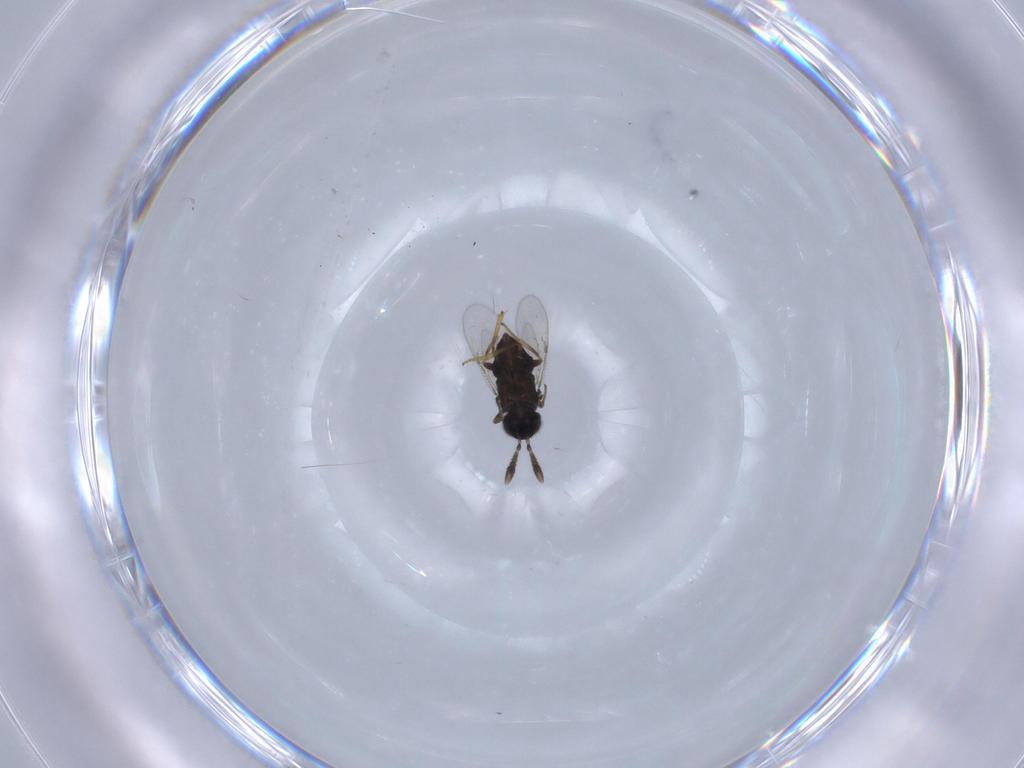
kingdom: Animalia
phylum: Arthropoda
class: Insecta
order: Hymenoptera
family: Encyrtidae
